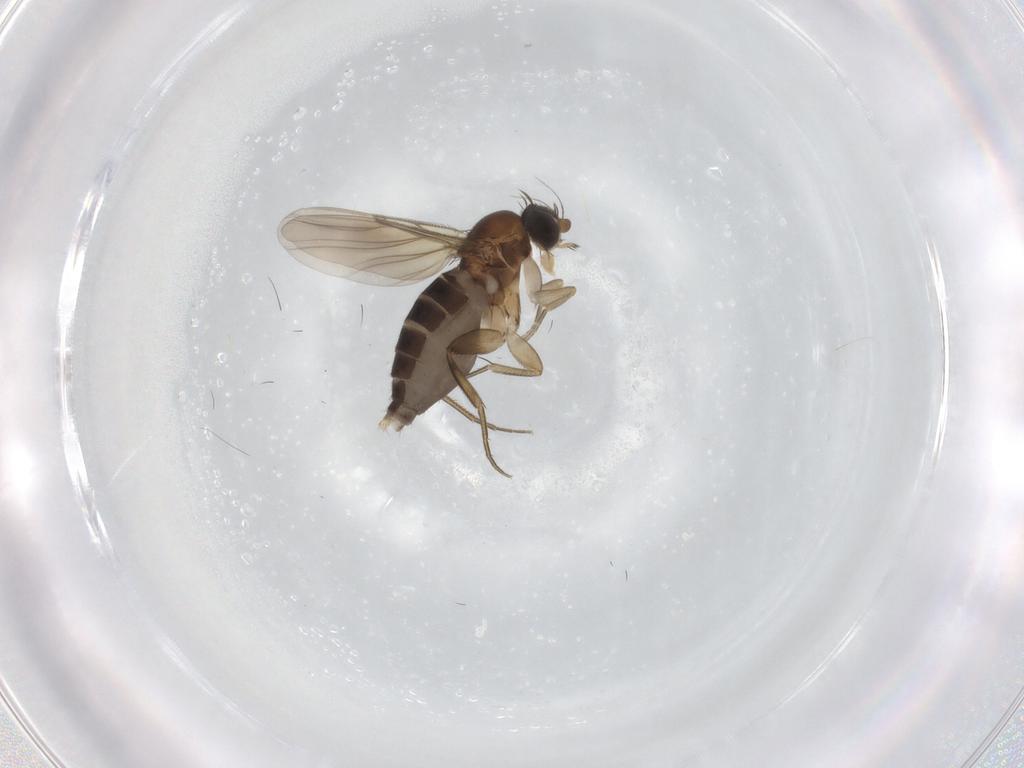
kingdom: Animalia
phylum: Arthropoda
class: Insecta
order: Diptera
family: Phoridae
